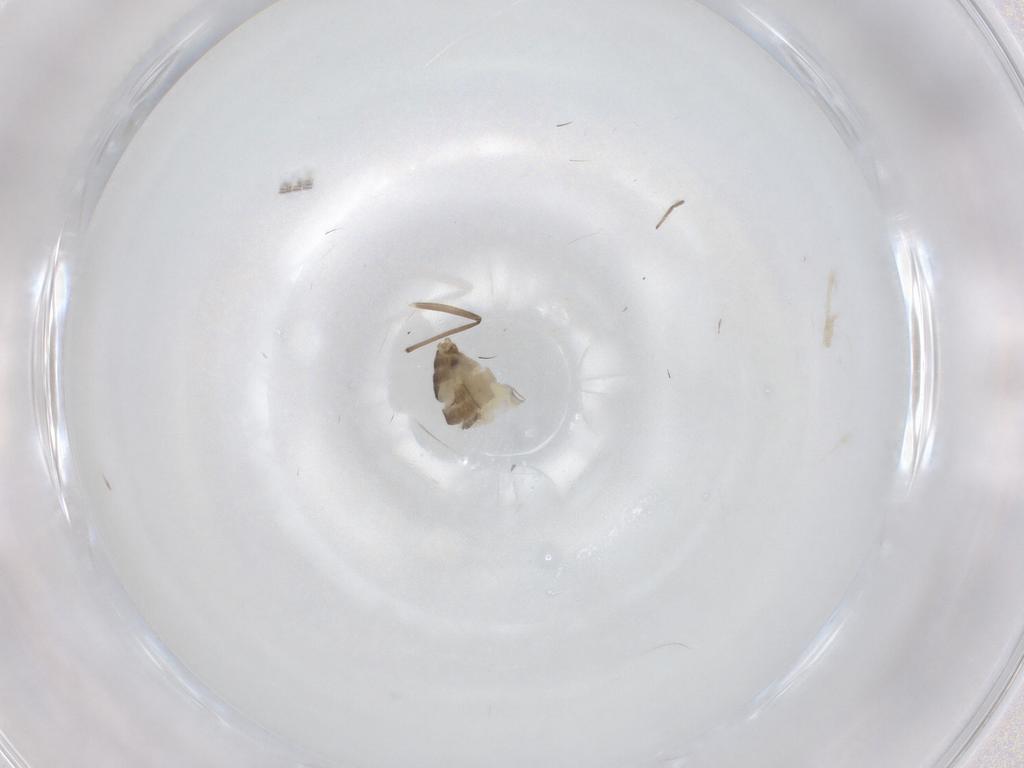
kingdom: Animalia
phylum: Arthropoda
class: Insecta
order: Diptera
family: Chironomidae
